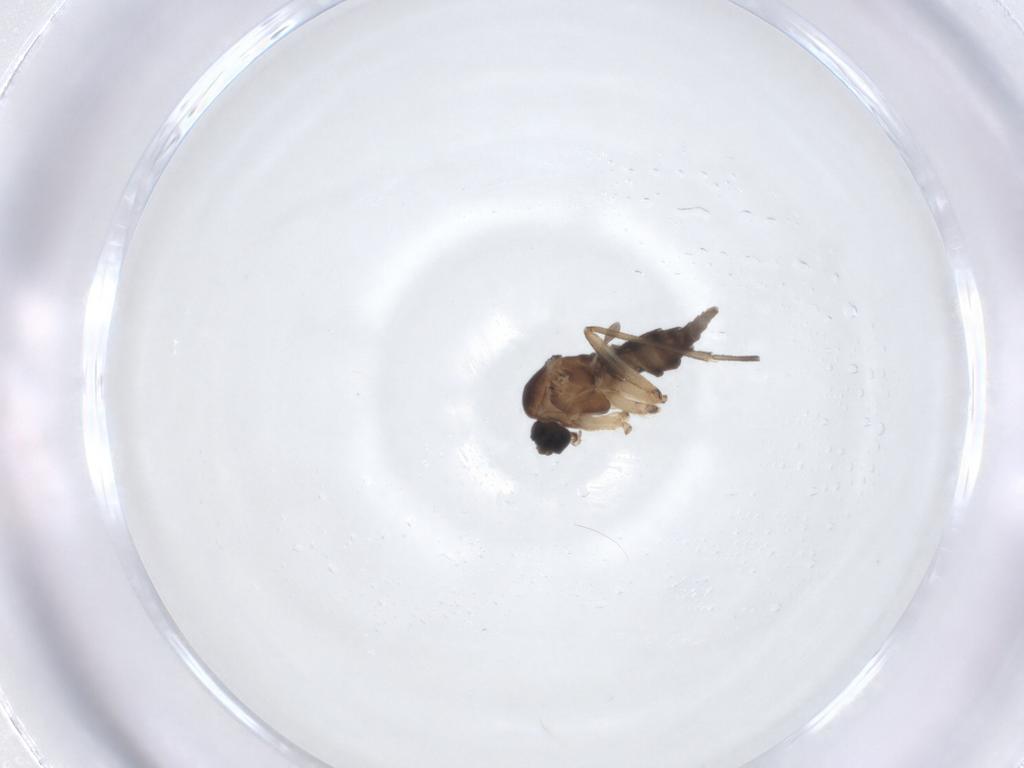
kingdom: Animalia
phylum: Arthropoda
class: Insecta
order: Diptera
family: Sciaridae
